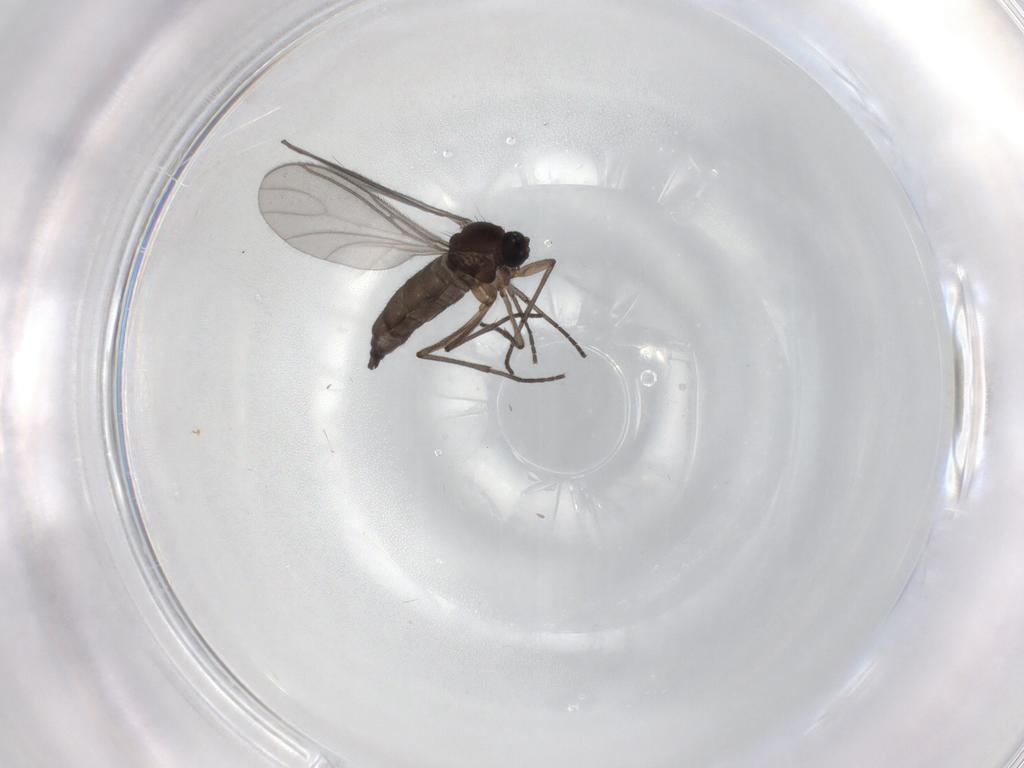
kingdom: Animalia
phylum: Arthropoda
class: Insecta
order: Diptera
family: Sciaridae
